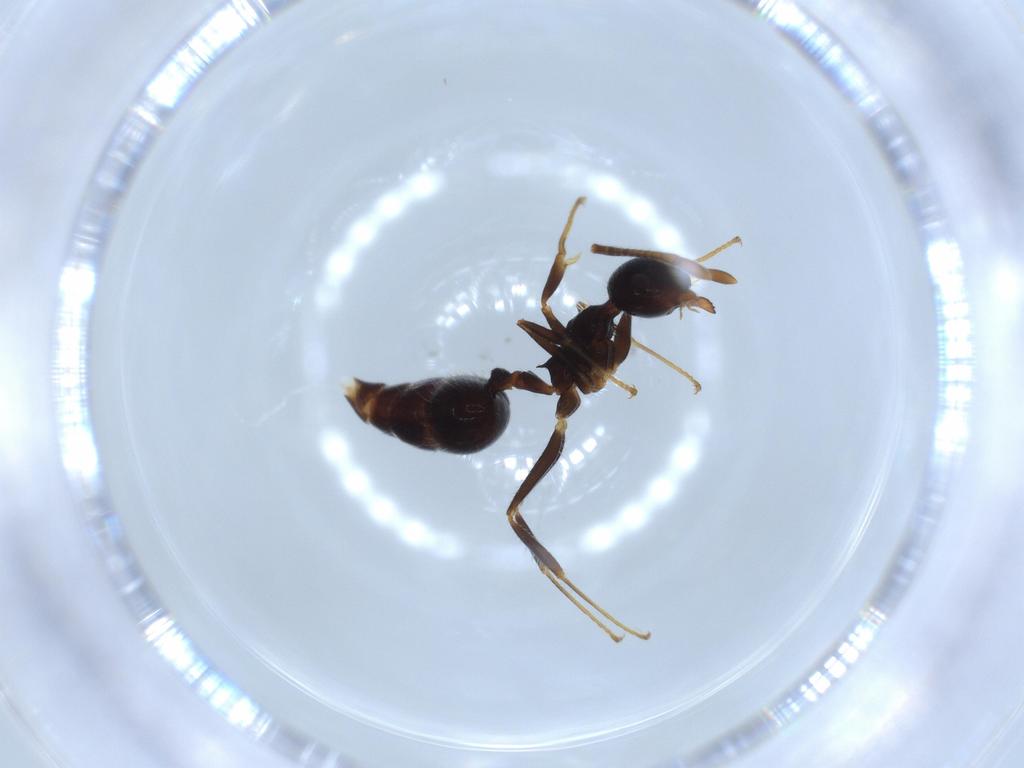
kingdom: Animalia
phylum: Arthropoda
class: Insecta
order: Hymenoptera
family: Formicidae
